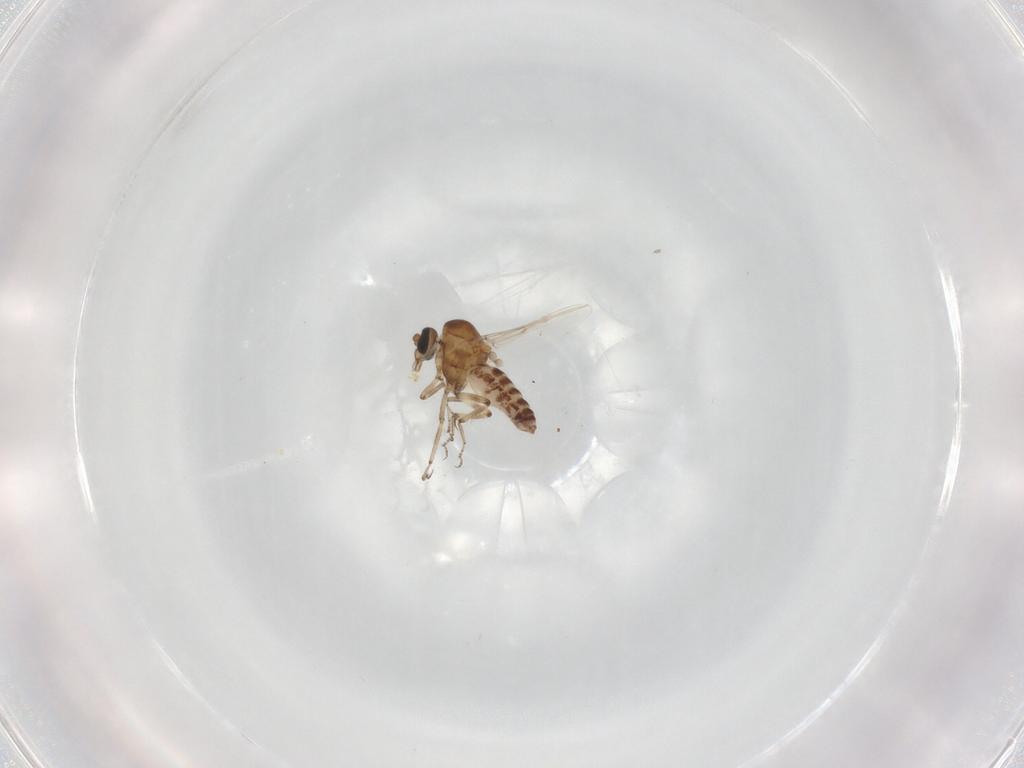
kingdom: Animalia
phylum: Arthropoda
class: Insecta
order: Diptera
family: Ceratopogonidae
